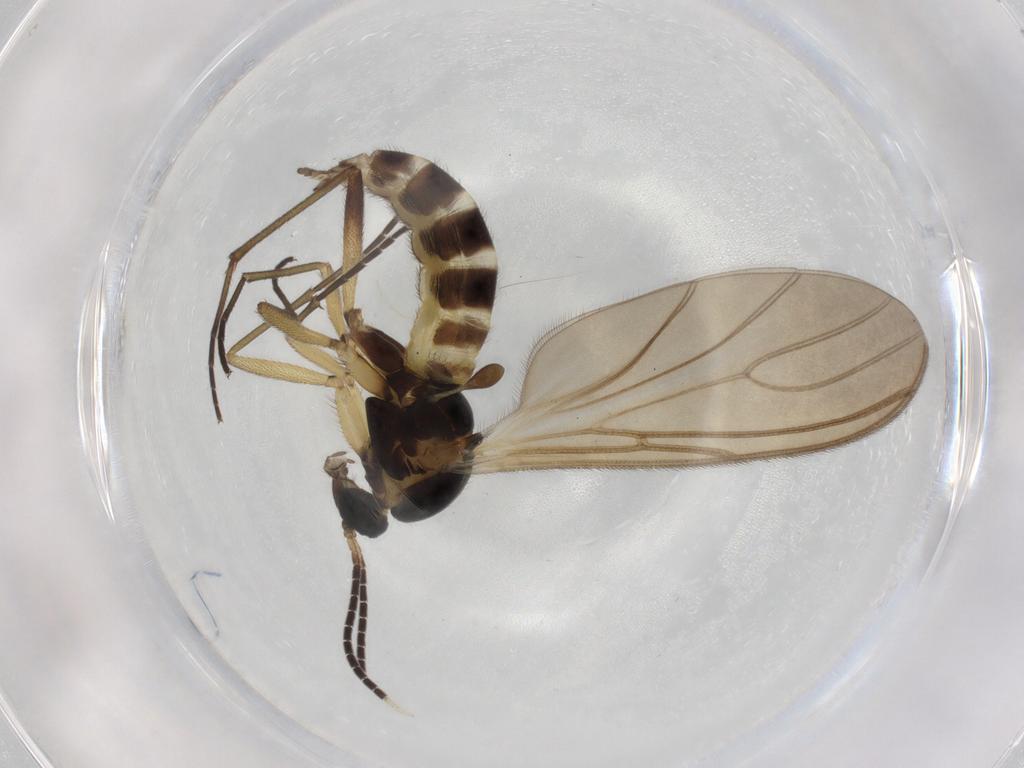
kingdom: Animalia
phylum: Arthropoda
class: Insecta
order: Diptera
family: Sciaridae
